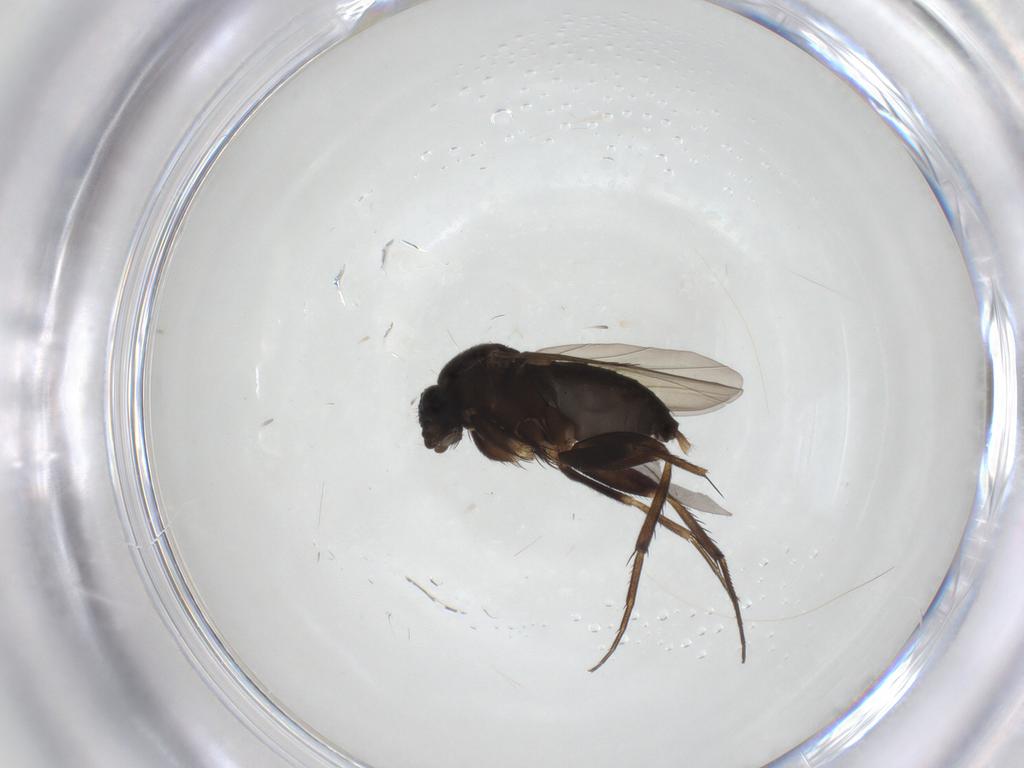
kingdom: Animalia
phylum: Arthropoda
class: Insecta
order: Diptera
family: Phoridae
